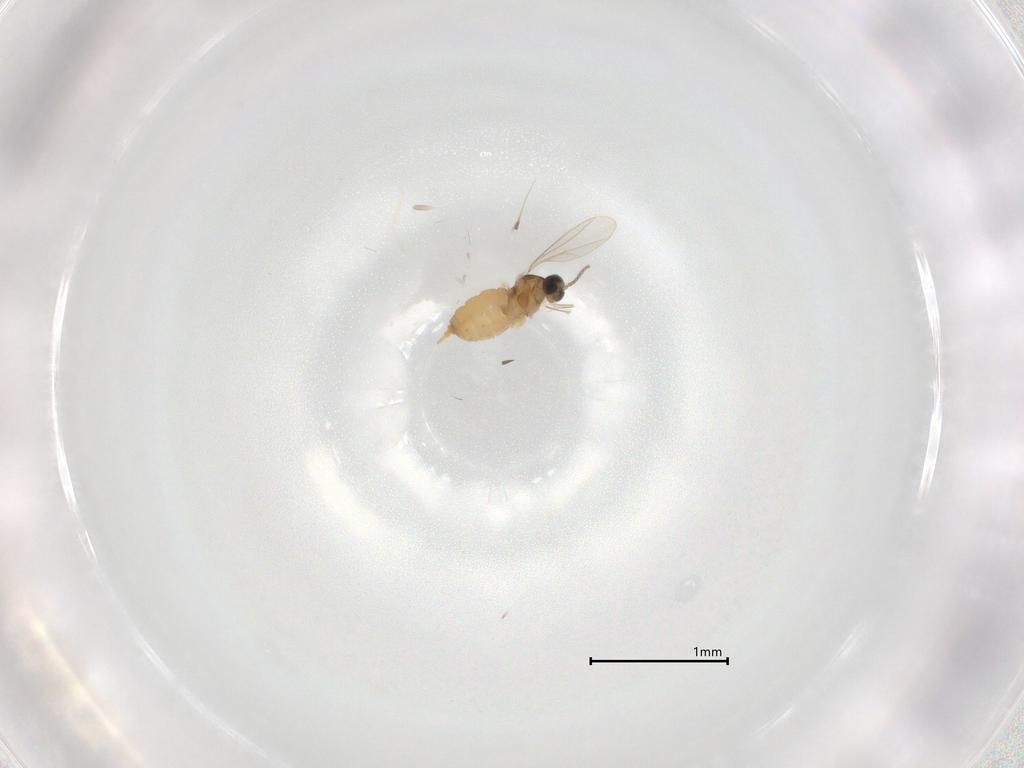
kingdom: Animalia
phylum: Arthropoda
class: Insecta
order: Diptera
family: Cecidomyiidae
